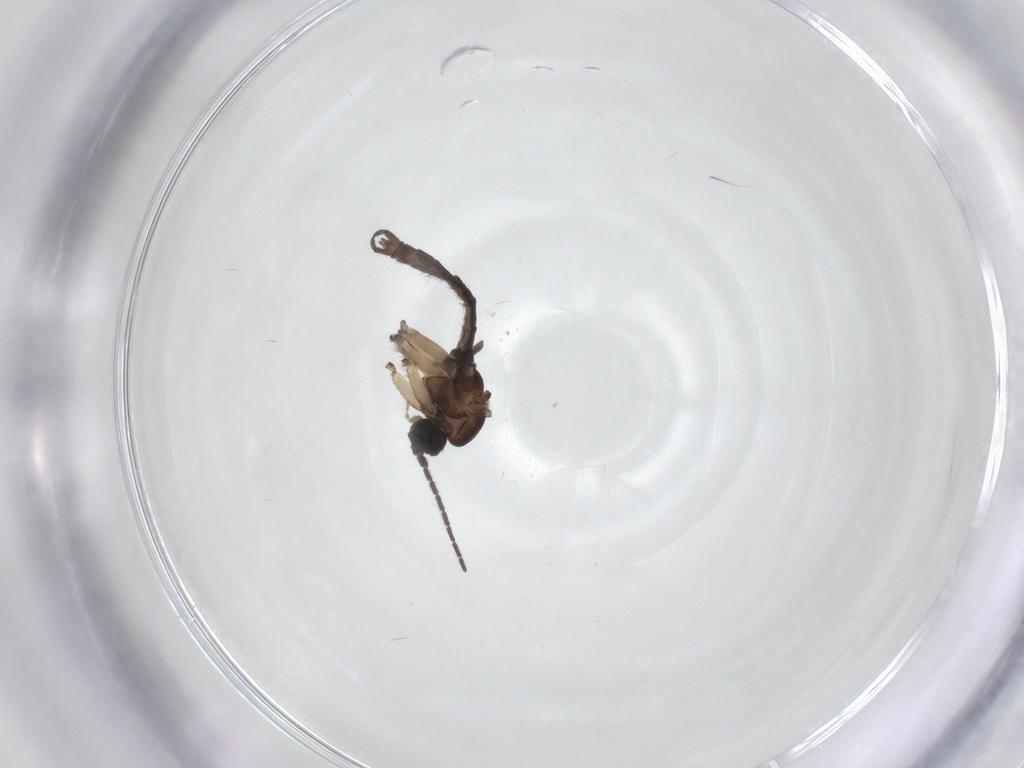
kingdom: Animalia
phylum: Arthropoda
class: Insecta
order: Diptera
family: Sciaridae
